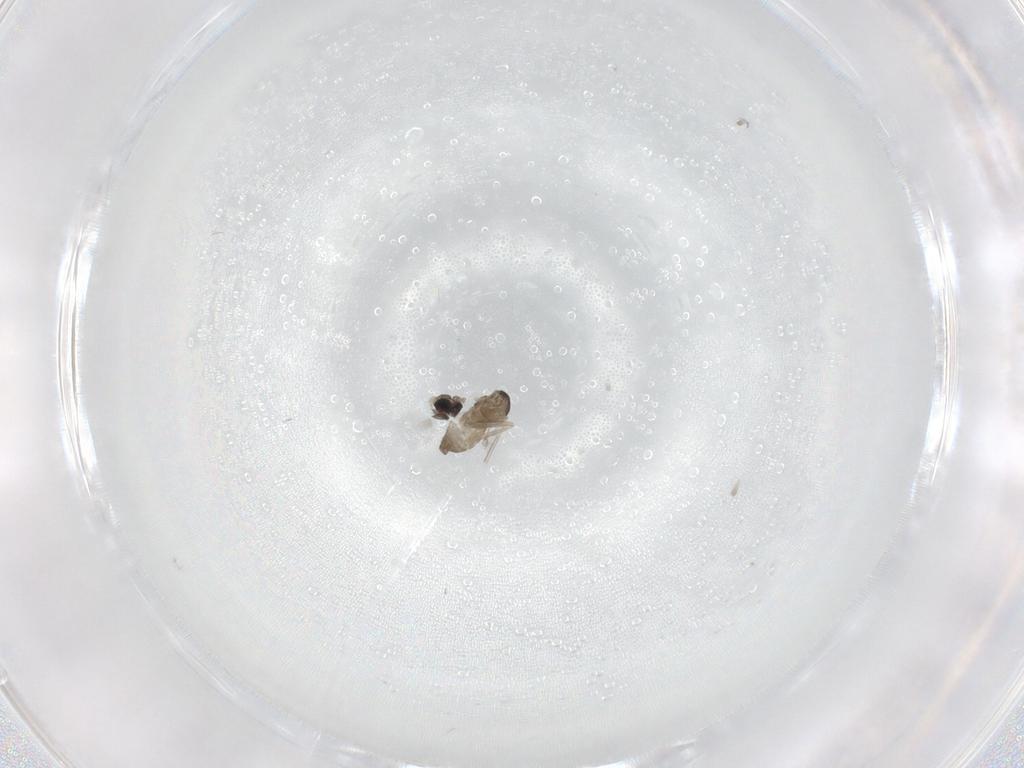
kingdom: Animalia
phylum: Arthropoda
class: Insecta
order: Diptera
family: Cecidomyiidae
